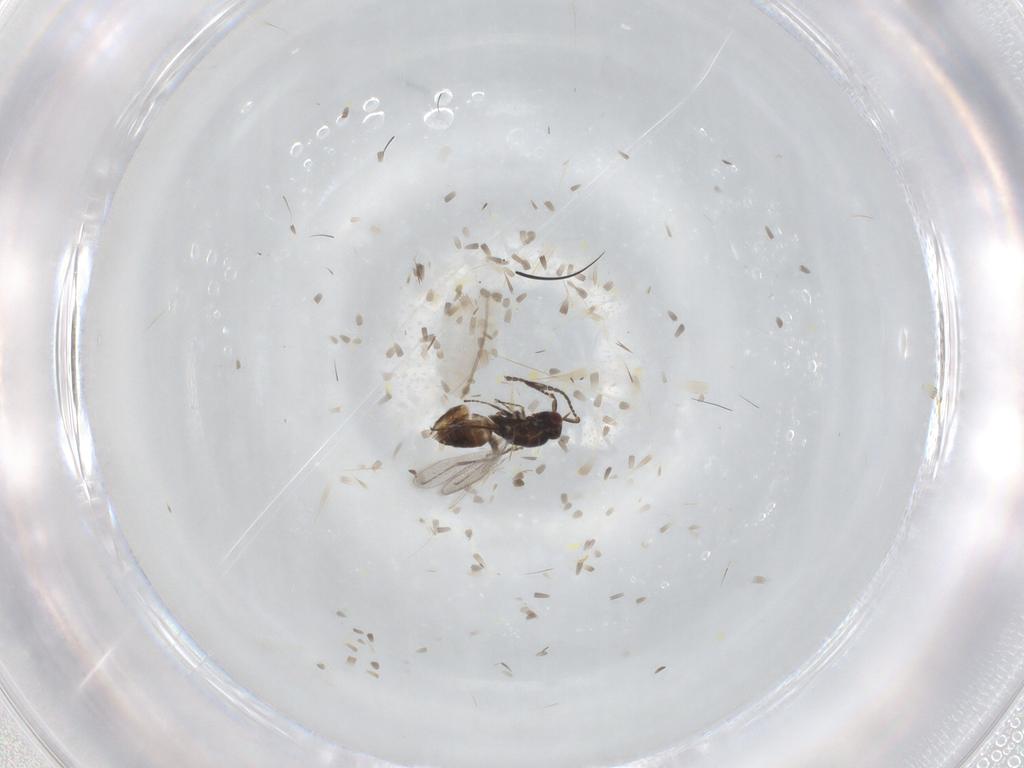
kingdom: Animalia
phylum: Arthropoda
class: Insecta
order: Hymenoptera
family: Mymaridae
